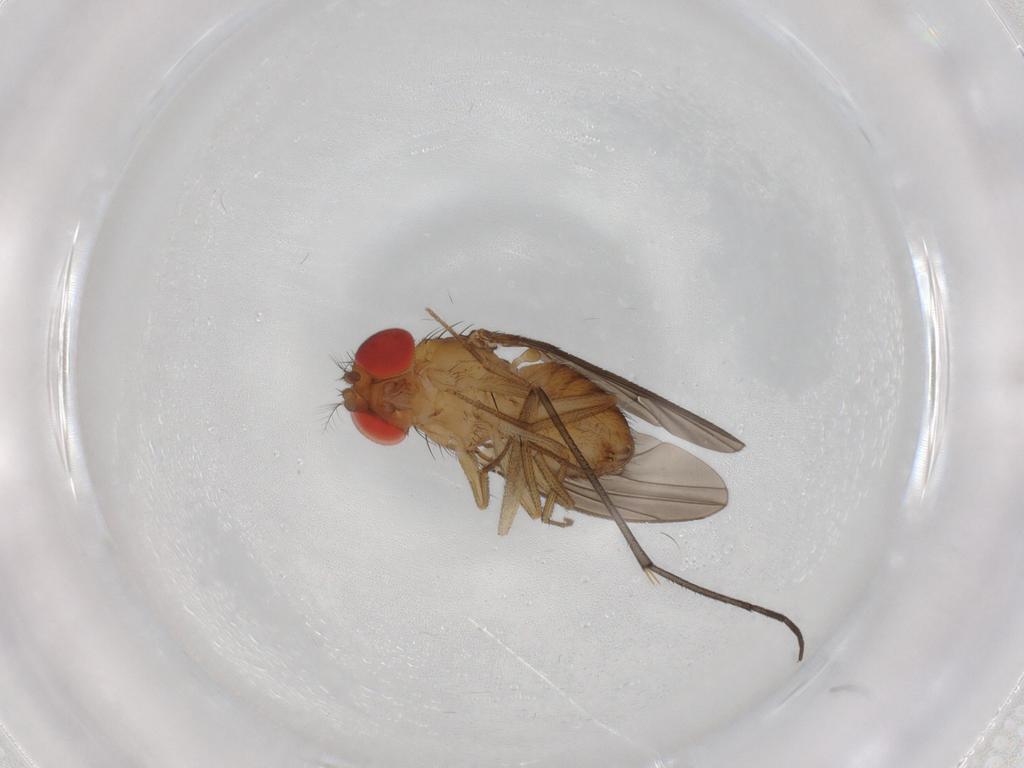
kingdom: Animalia
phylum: Arthropoda
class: Insecta
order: Diptera
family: Drosophilidae
